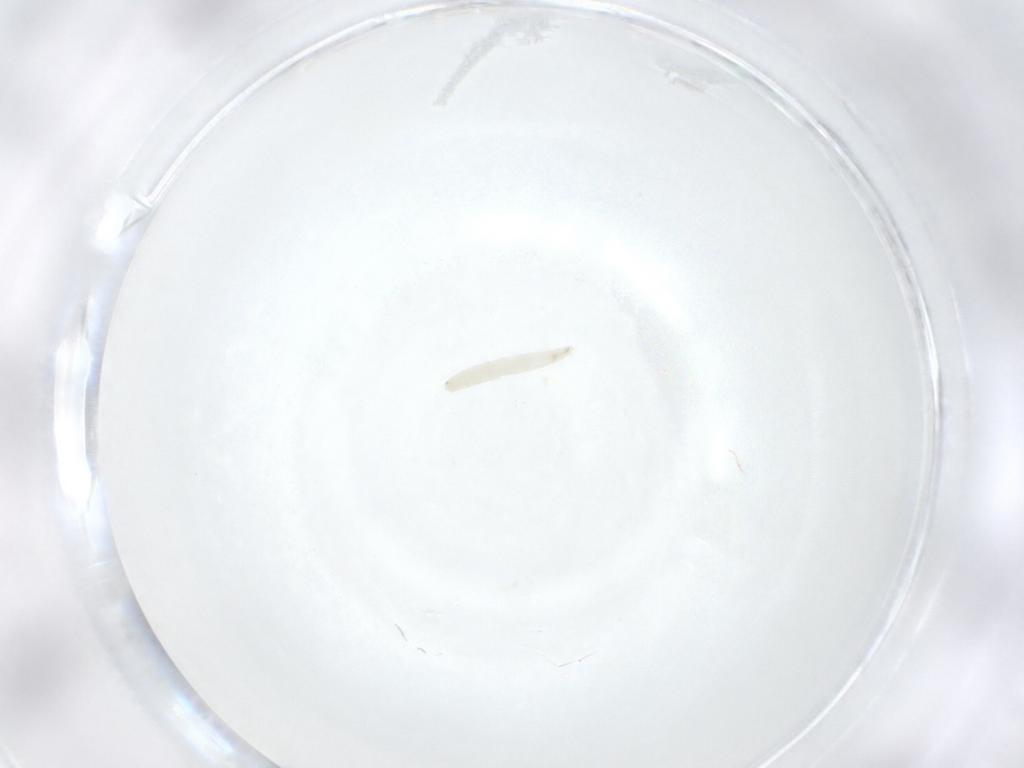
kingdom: Animalia
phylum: Arthropoda
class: Insecta
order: Diptera
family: Sarcophagidae
